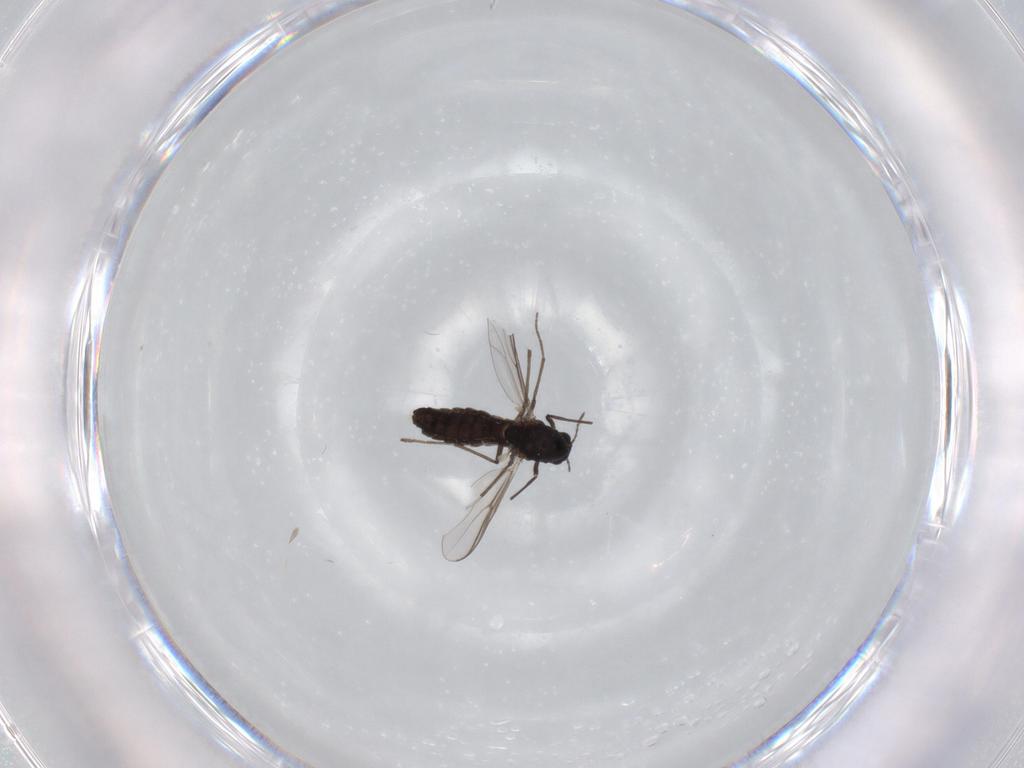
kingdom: Animalia
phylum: Arthropoda
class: Insecta
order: Diptera
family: Chironomidae
